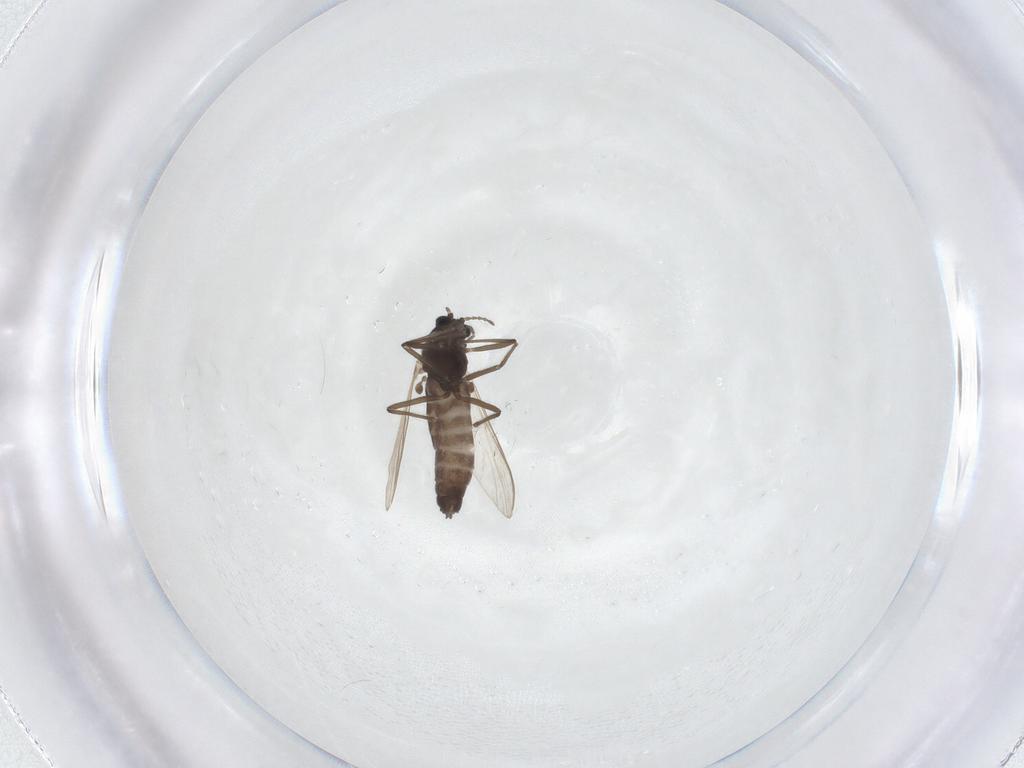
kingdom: Animalia
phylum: Arthropoda
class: Insecta
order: Diptera
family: Chironomidae
